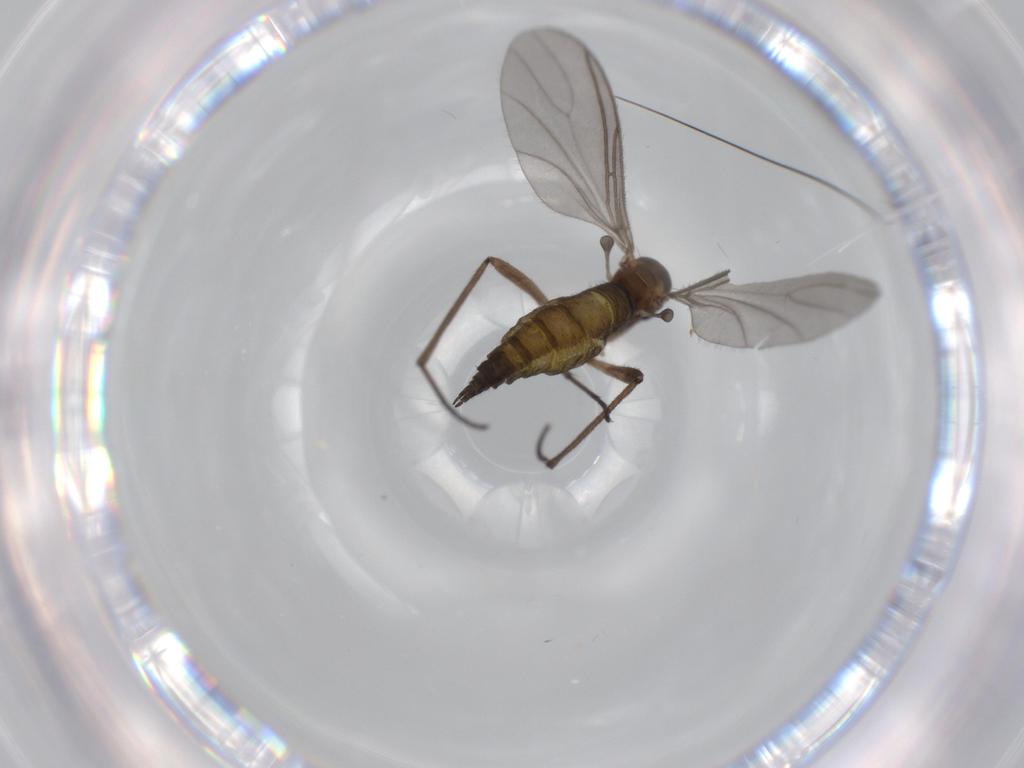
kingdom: Animalia
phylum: Arthropoda
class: Insecta
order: Diptera
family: Sciaridae
